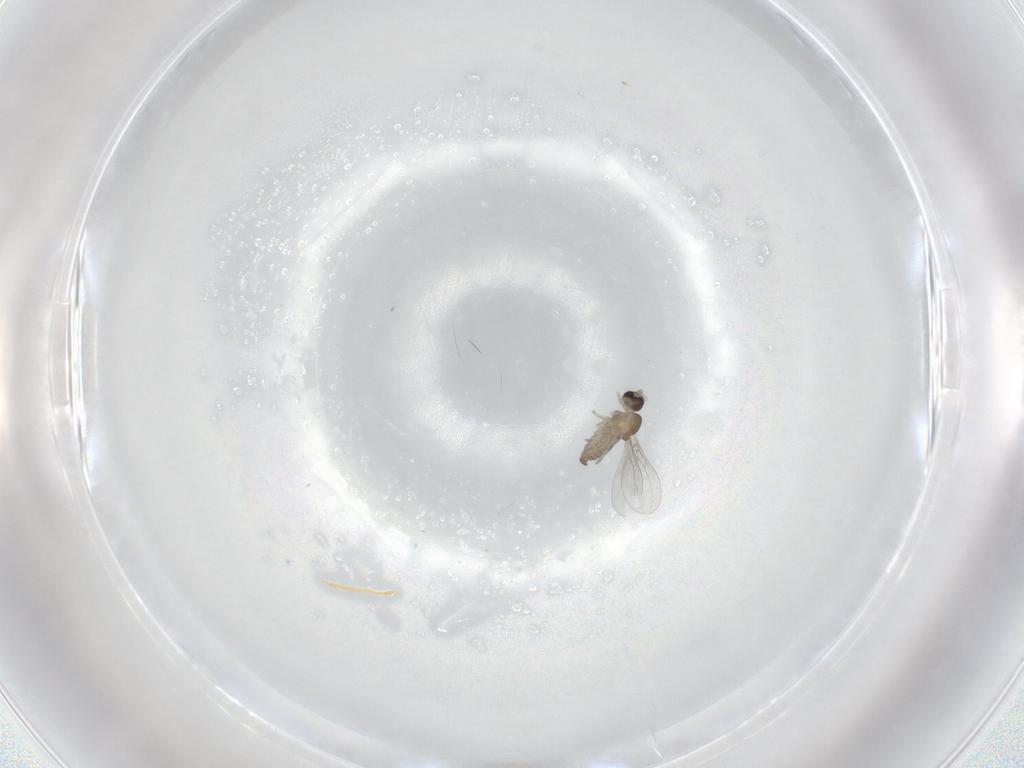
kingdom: Animalia
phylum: Arthropoda
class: Insecta
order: Diptera
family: Cecidomyiidae
